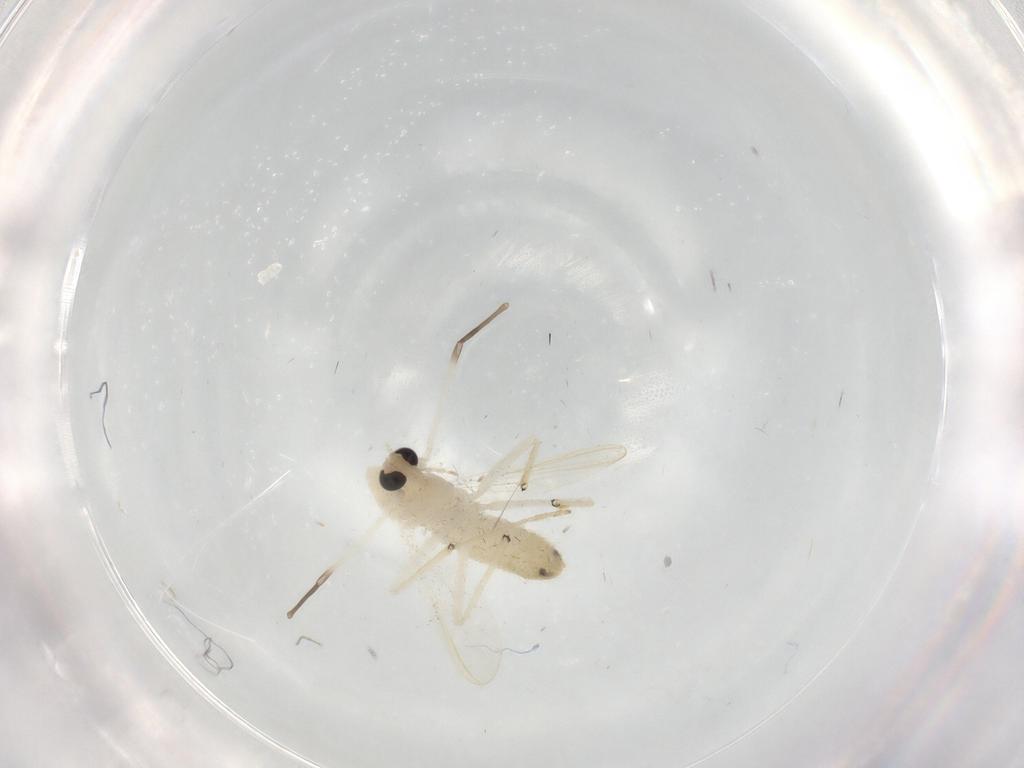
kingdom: Animalia
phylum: Arthropoda
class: Insecta
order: Diptera
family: Chironomidae
